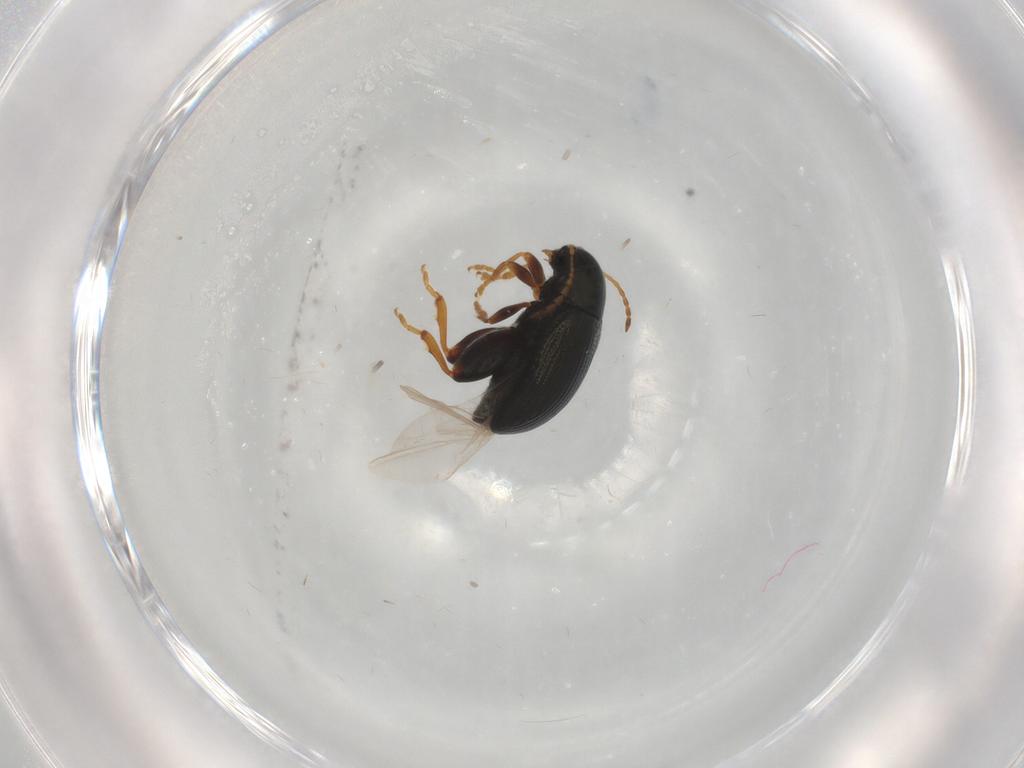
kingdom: Animalia
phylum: Arthropoda
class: Insecta
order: Coleoptera
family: Chrysomelidae
